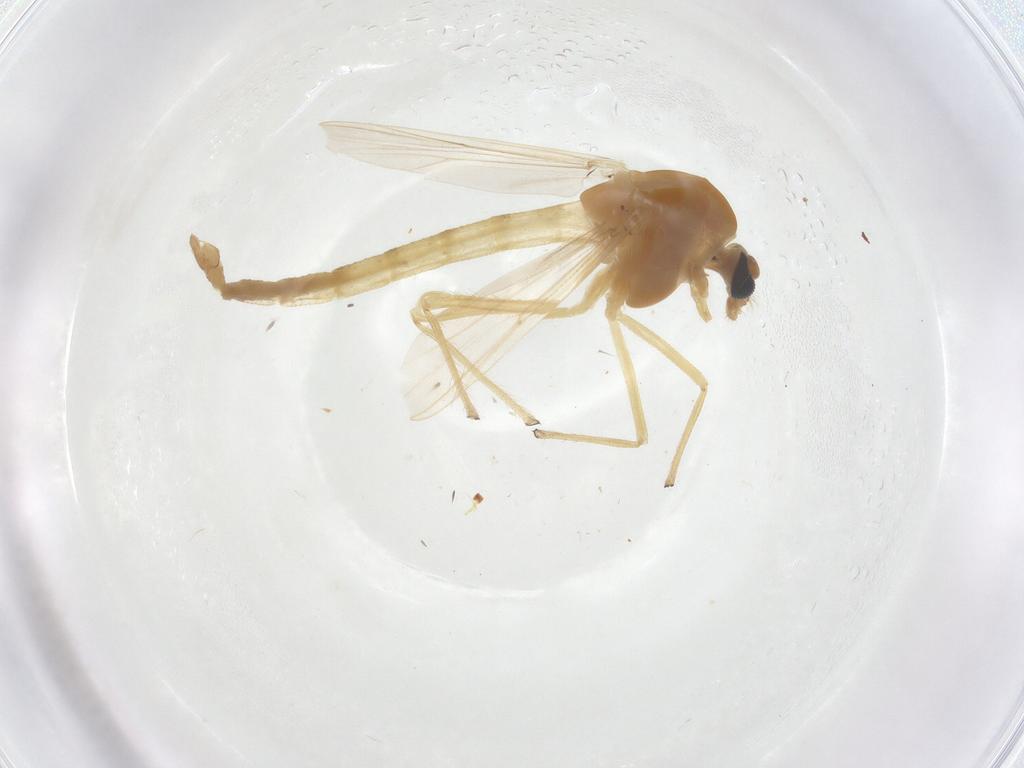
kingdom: Animalia
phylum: Arthropoda
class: Insecta
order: Diptera
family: Chironomidae
